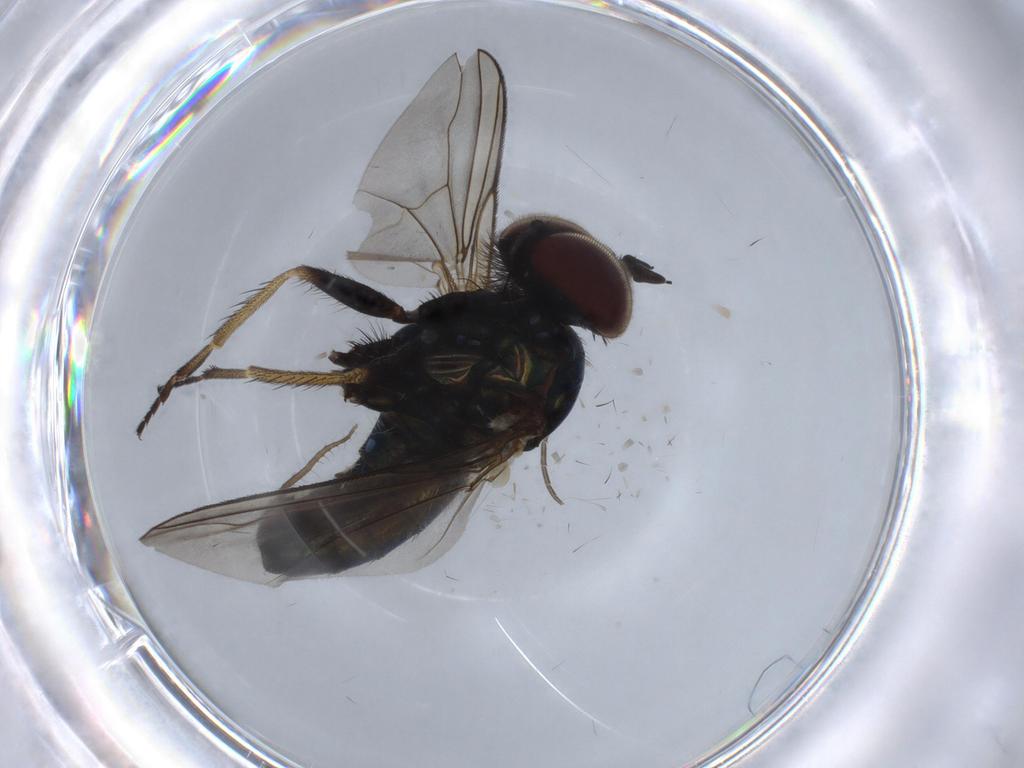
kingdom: Animalia
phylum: Arthropoda
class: Insecta
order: Diptera
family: Dolichopodidae
